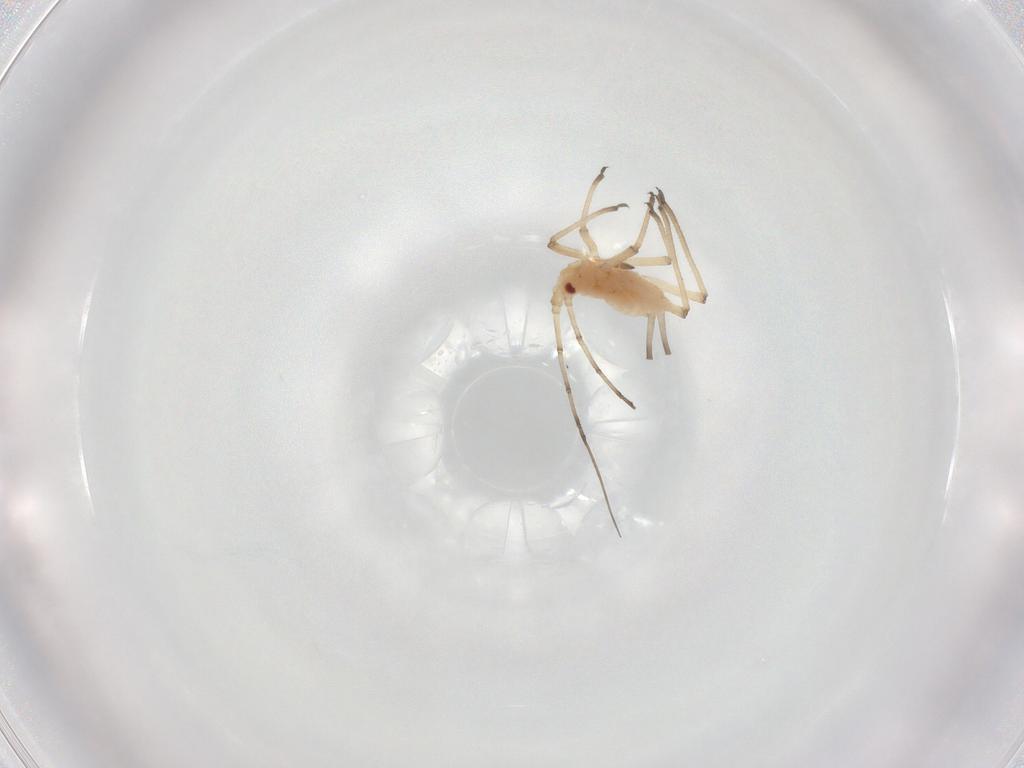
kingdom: Animalia
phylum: Arthropoda
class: Insecta
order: Hemiptera
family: Aphididae
